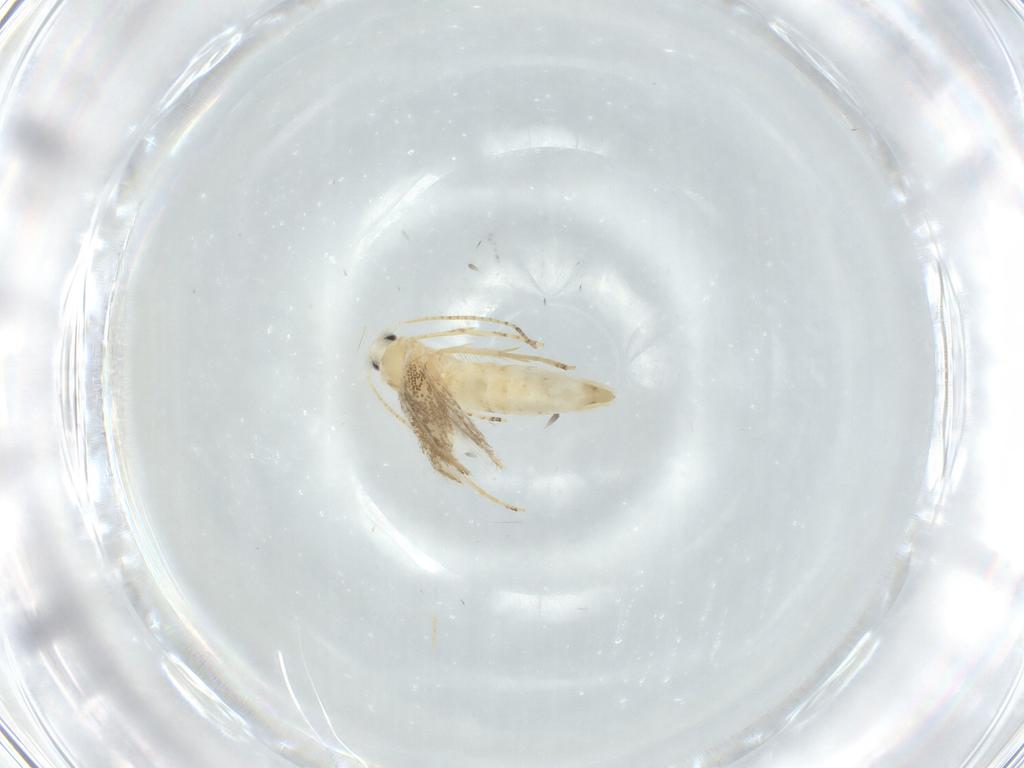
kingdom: Animalia
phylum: Arthropoda
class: Insecta
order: Lepidoptera
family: Bucculatricidae
